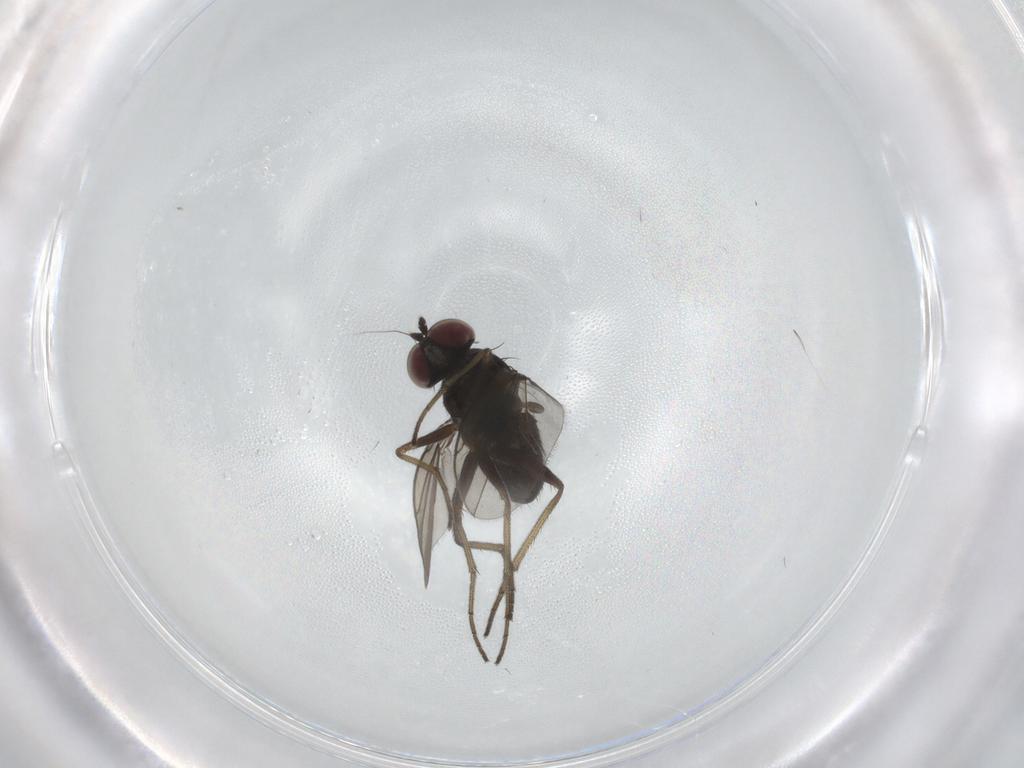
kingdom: Animalia
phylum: Arthropoda
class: Insecta
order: Diptera
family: Dolichopodidae
